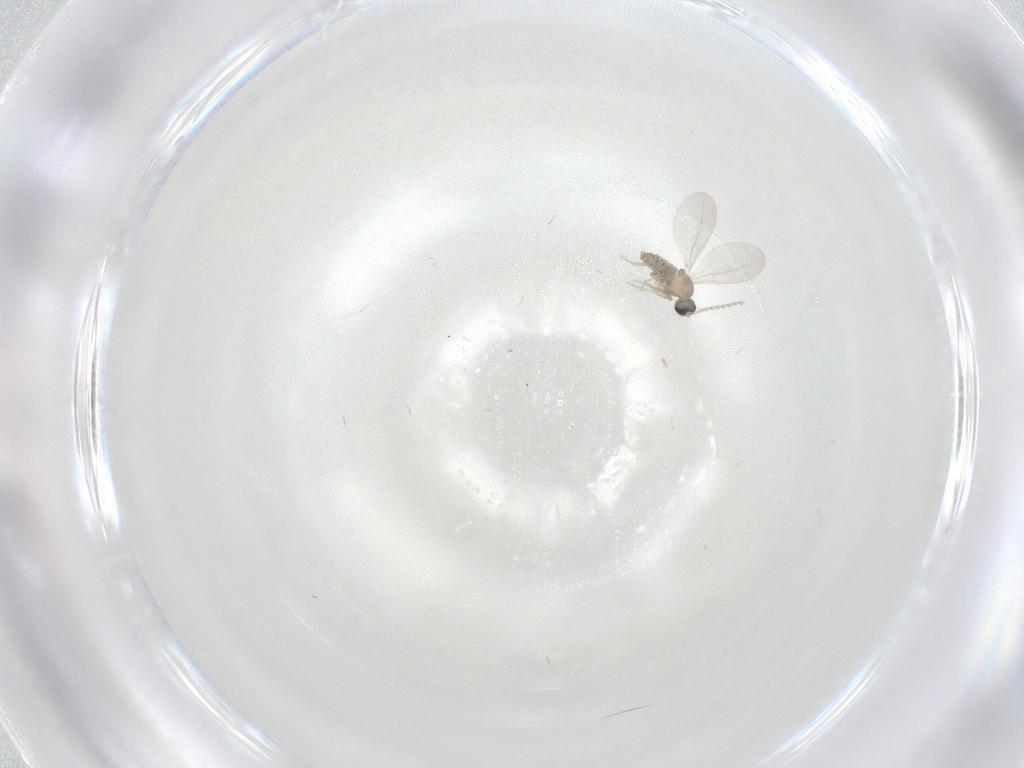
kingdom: Animalia
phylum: Arthropoda
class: Insecta
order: Diptera
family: Cecidomyiidae
